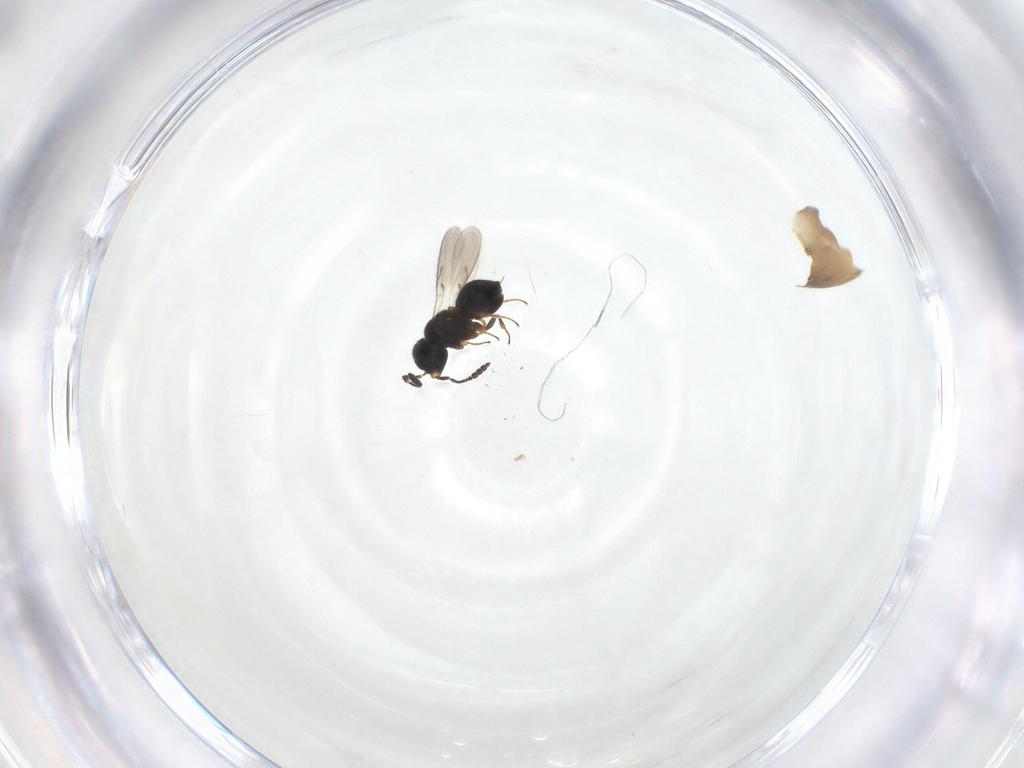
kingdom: Animalia
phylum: Arthropoda
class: Insecta
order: Hymenoptera
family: Scelionidae
